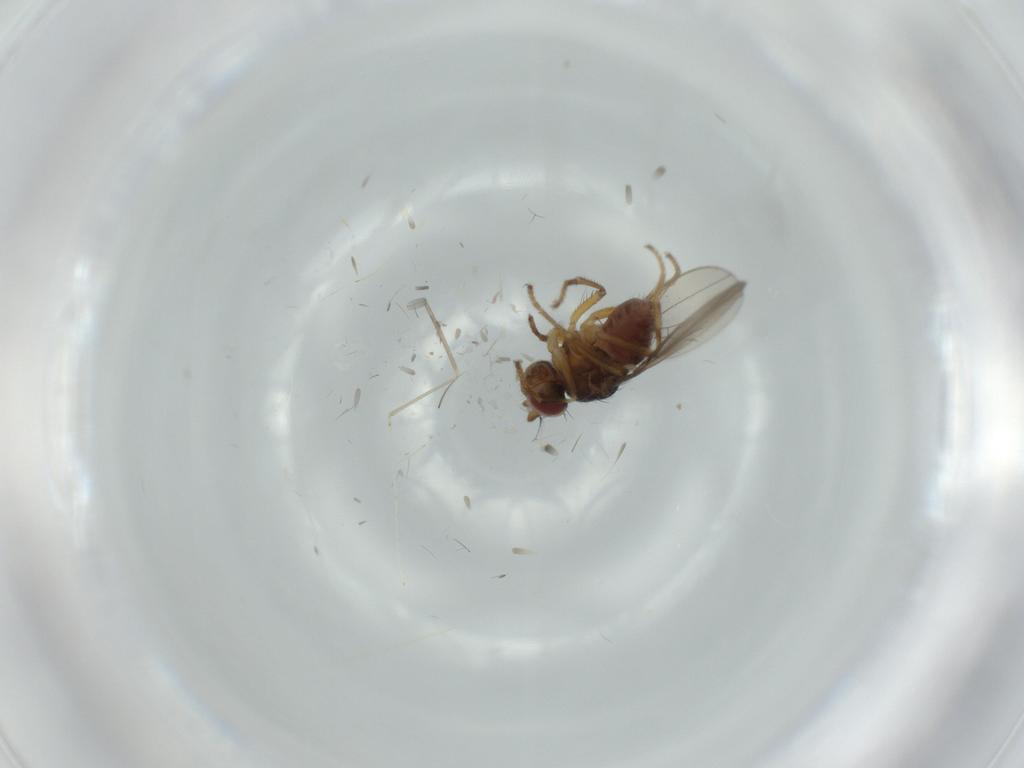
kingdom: Animalia
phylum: Arthropoda
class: Insecta
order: Diptera
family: Ephydridae
